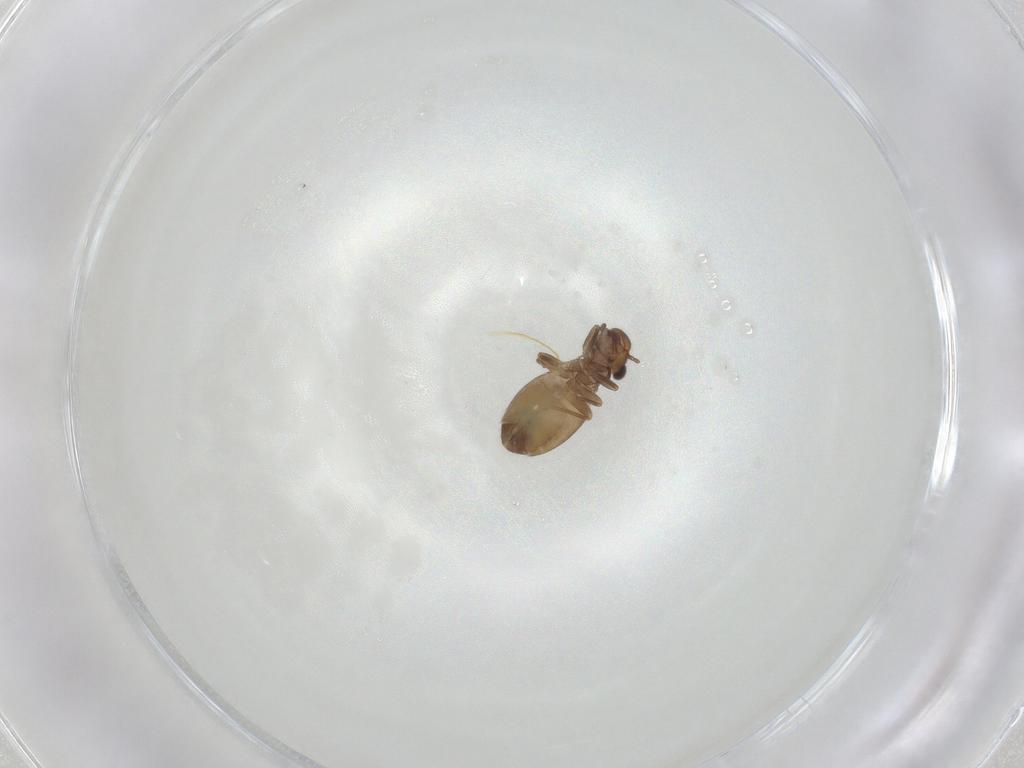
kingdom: Animalia
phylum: Arthropoda
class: Insecta
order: Psocodea
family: Trogiidae
